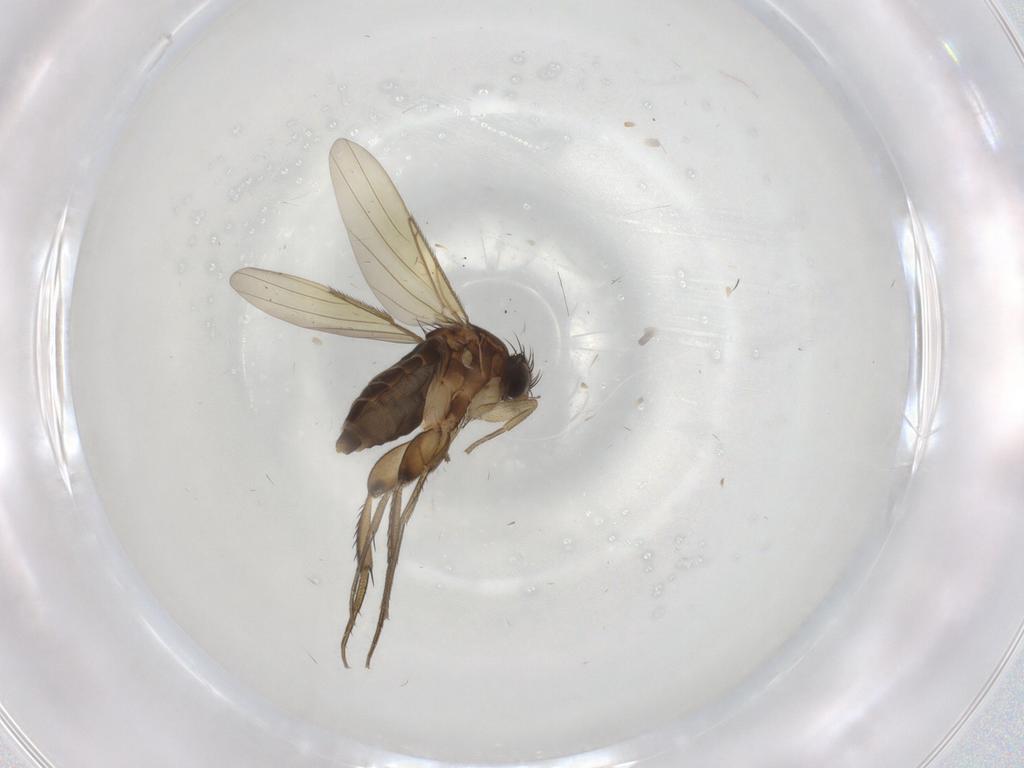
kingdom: Animalia
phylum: Arthropoda
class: Insecta
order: Diptera
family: Phoridae
